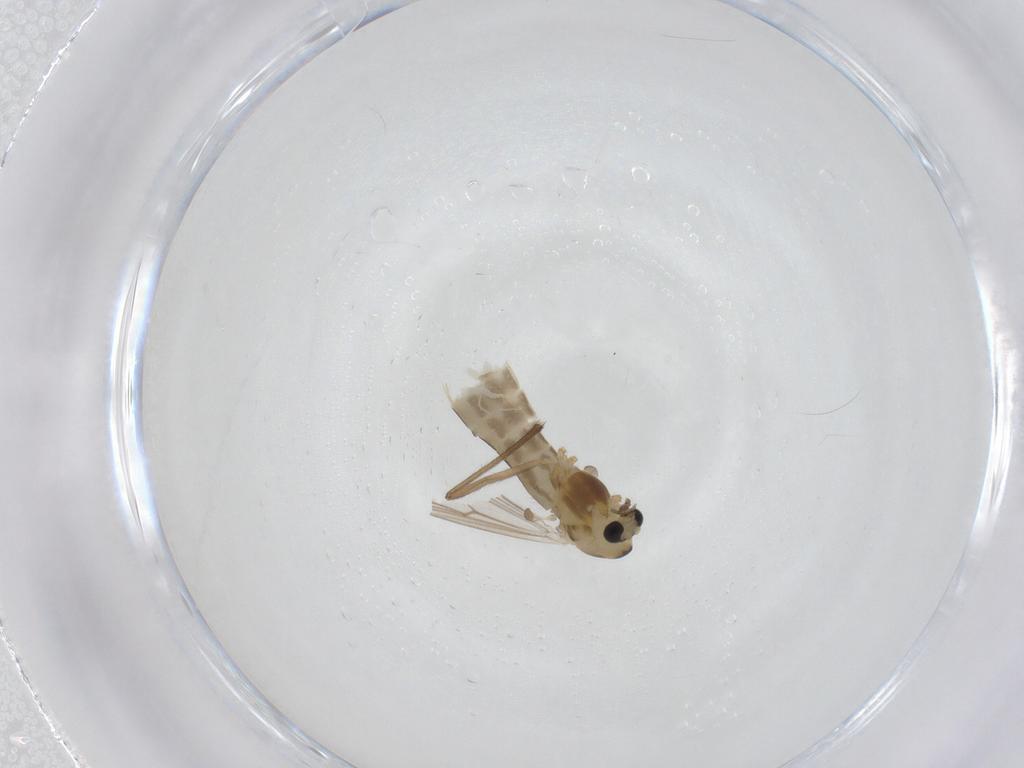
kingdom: Animalia
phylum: Arthropoda
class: Insecta
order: Diptera
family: Chironomidae
